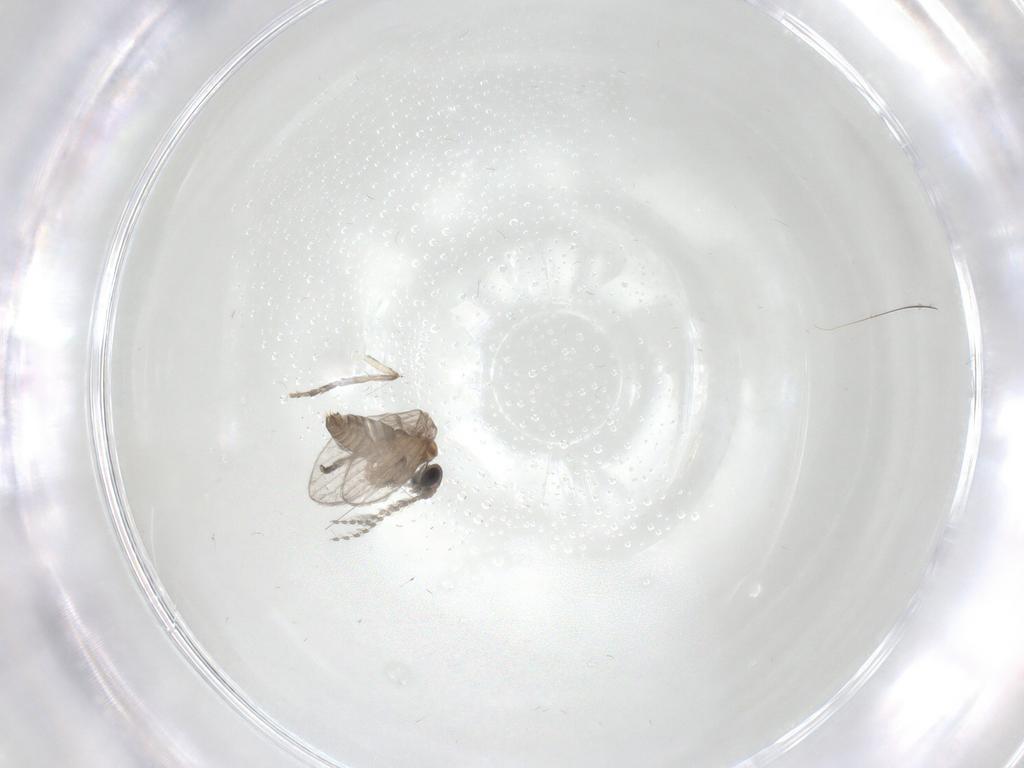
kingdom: Animalia
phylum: Arthropoda
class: Insecta
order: Diptera
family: Psychodidae
